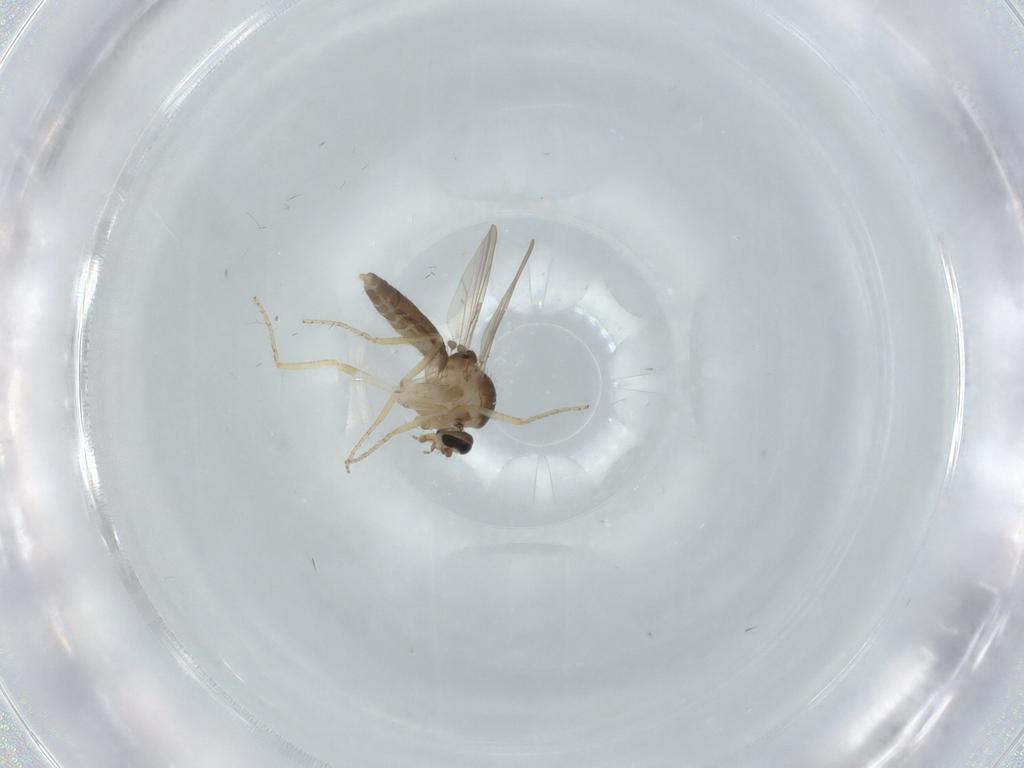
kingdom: Animalia
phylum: Arthropoda
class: Insecta
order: Diptera
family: Ceratopogonidae
